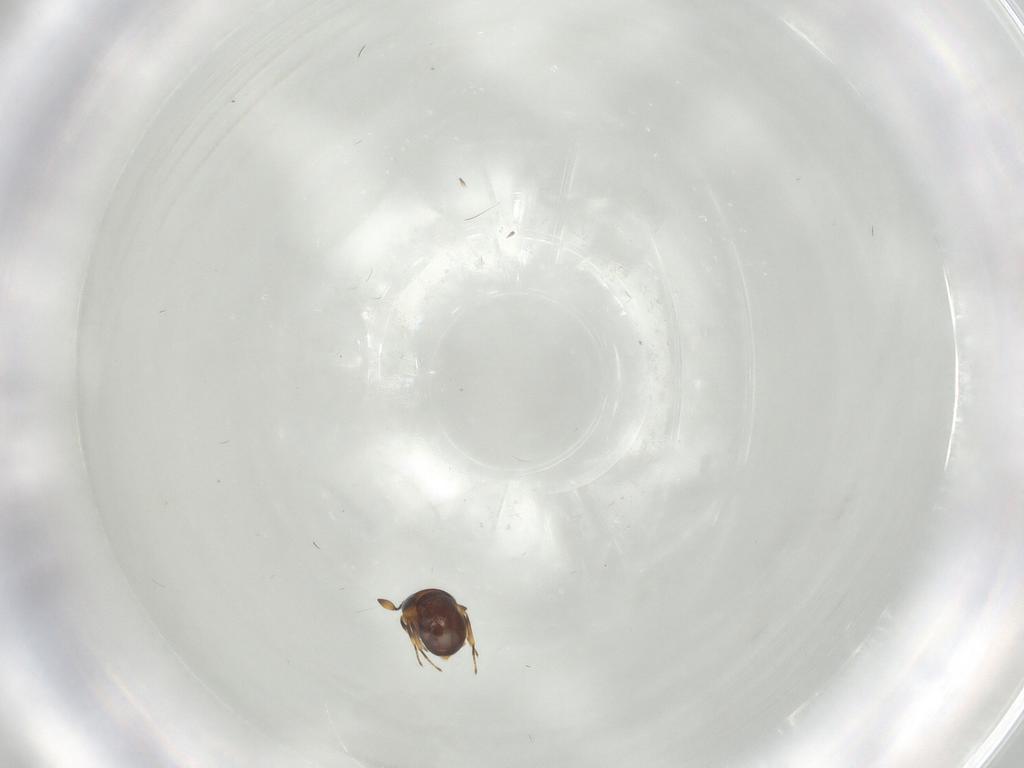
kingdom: Animalia
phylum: Arthropoda
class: Insecta
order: Hymenoptera
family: Scelionidae
